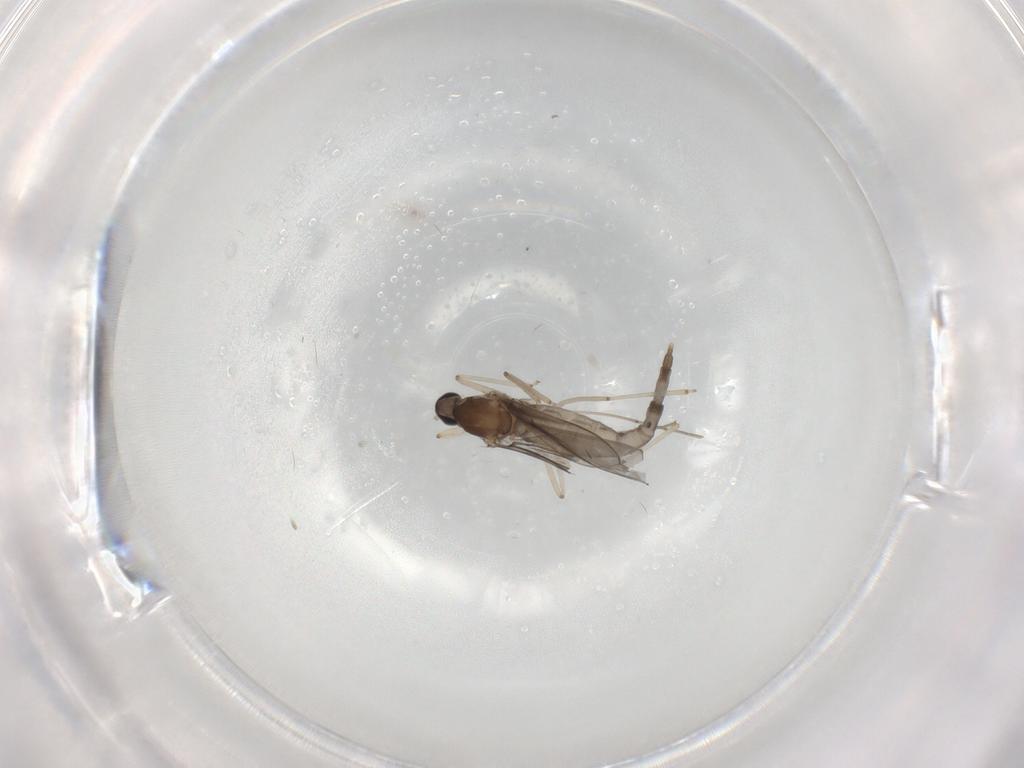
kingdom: Animalia
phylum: Arthropoda
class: Insecta
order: Diptera
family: Cecidomyiidae
